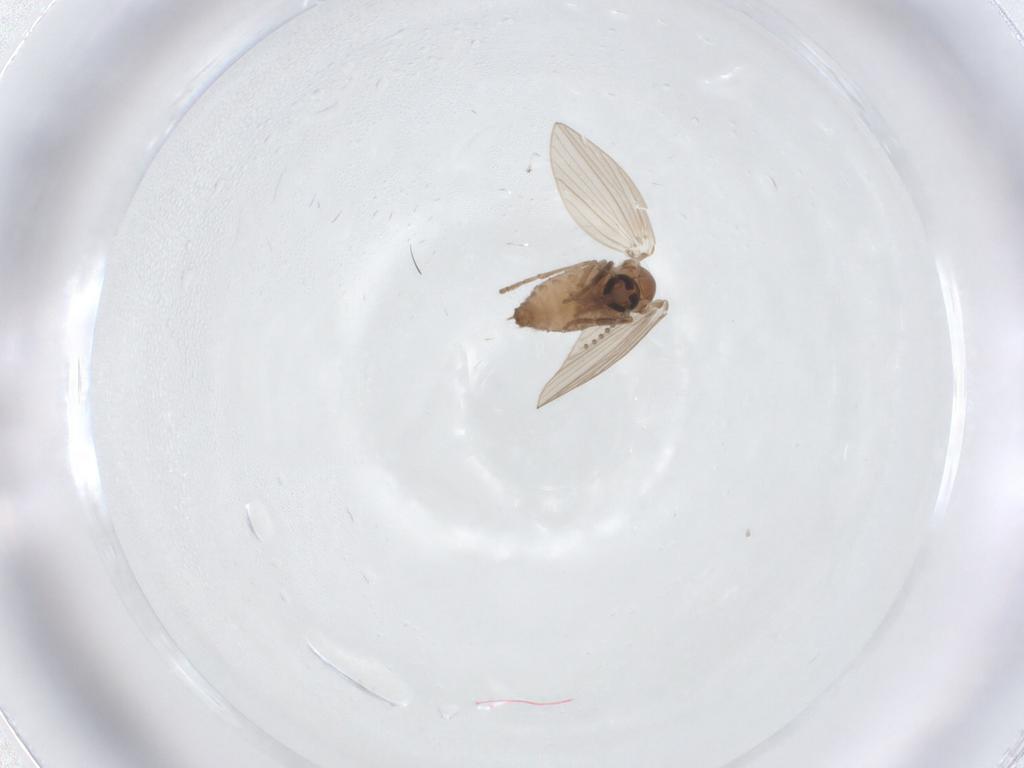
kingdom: Animalia
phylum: Arthropoda
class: Insecta
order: Diptera
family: Psychodidae
